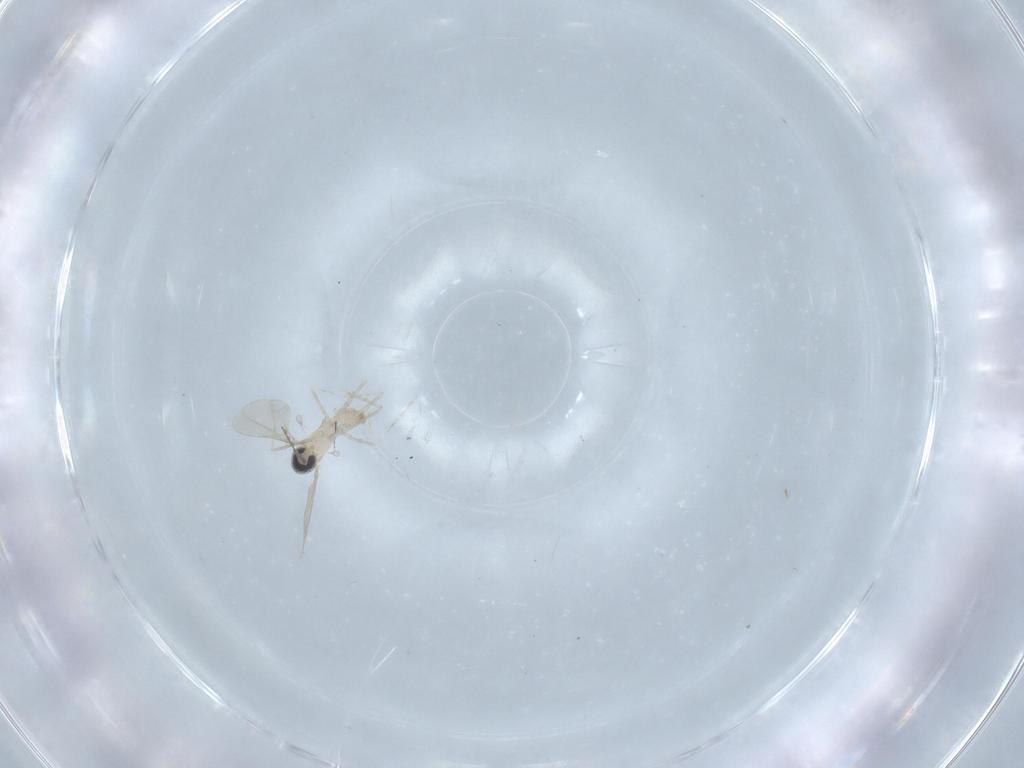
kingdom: Animalia
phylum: Arthropoda
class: Insecta
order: Diptera
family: Cecidomyiidae
